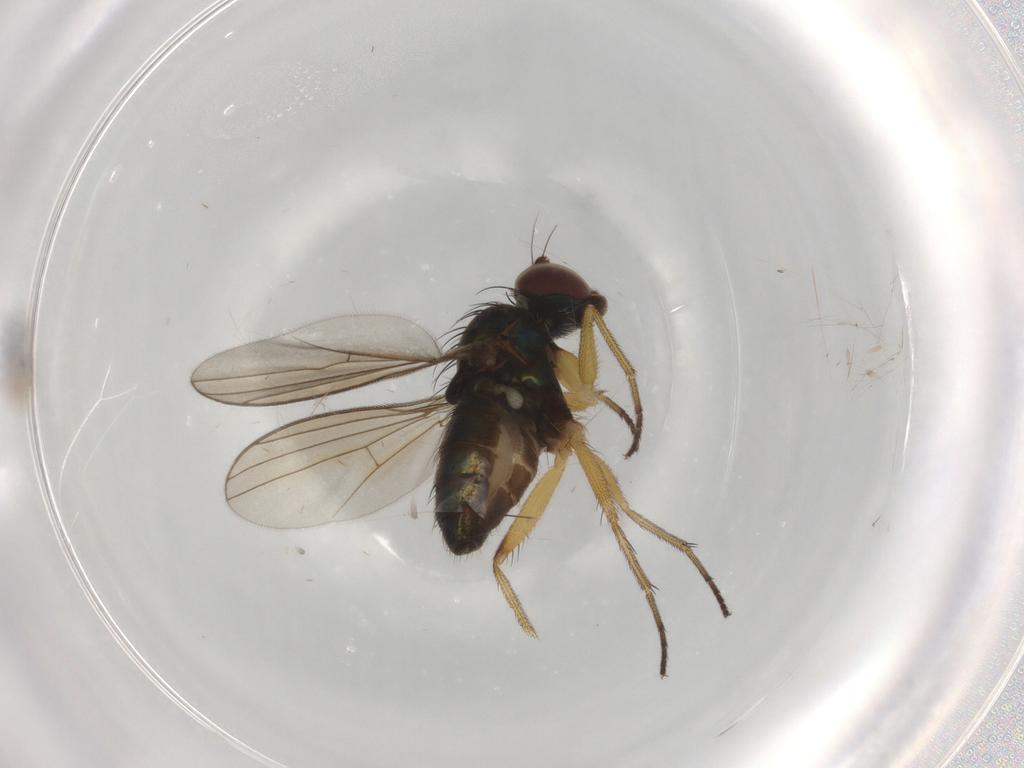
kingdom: Animalia
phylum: Arthropoda
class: Insecta
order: Diptera
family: Dolichopodidae
